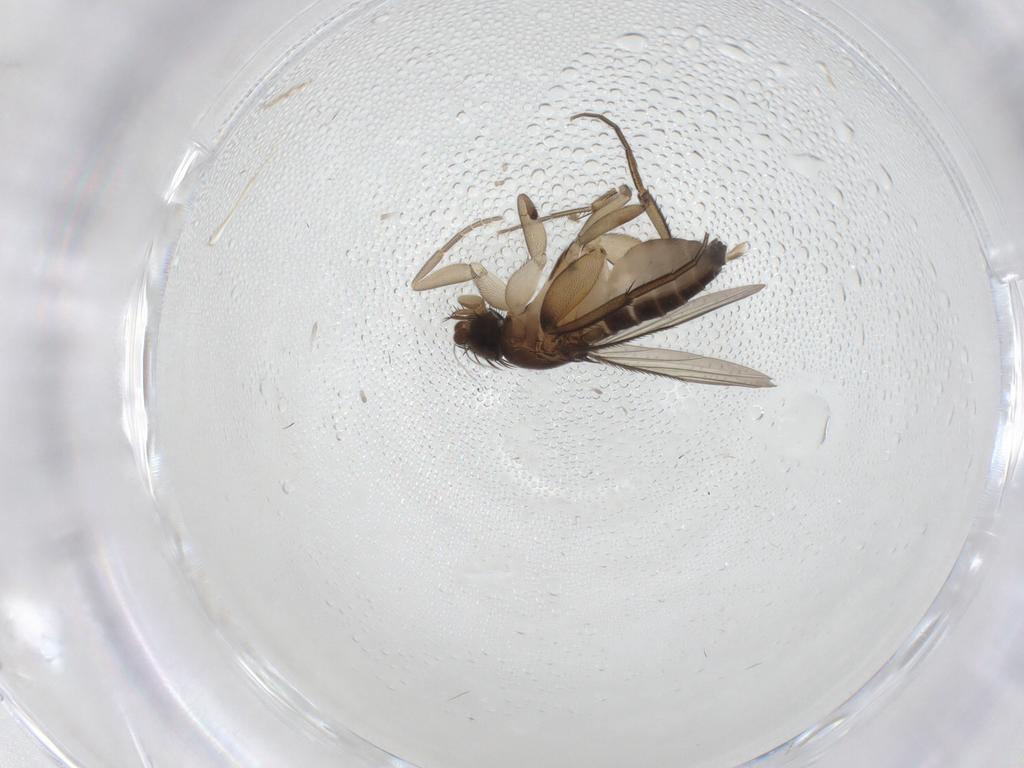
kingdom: Animalia
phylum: Arthropoda
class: Insecta
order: Diptera
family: Phoridae
